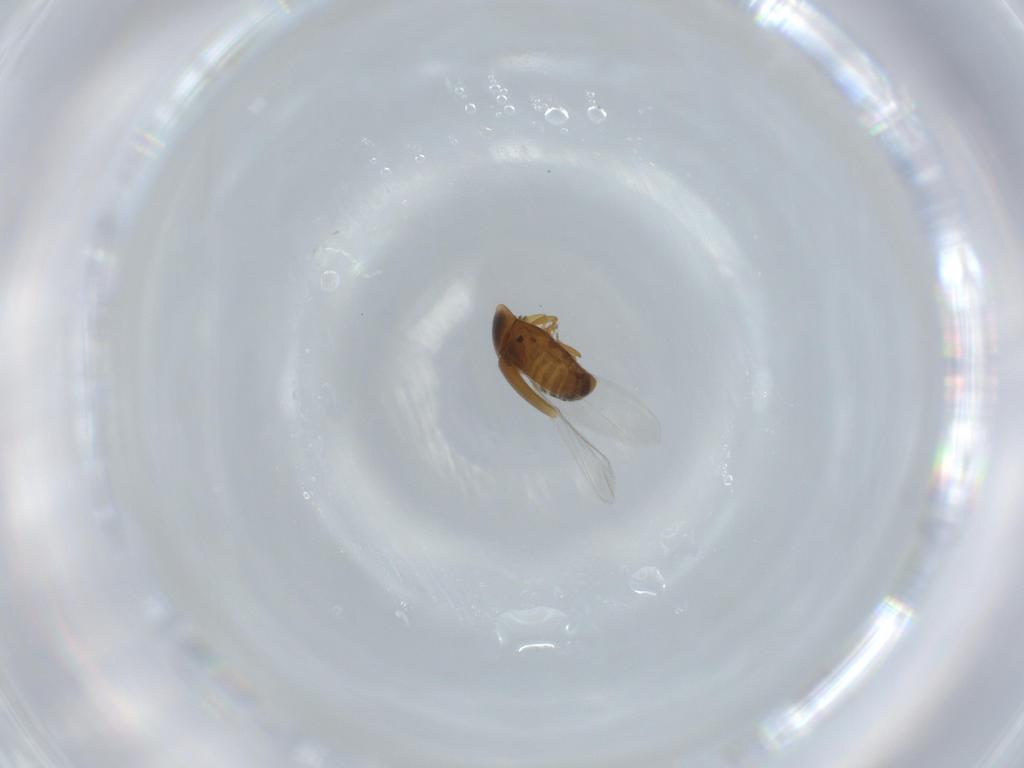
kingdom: Animalia
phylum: Arthropoda
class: Insecta
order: Coleoptera
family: Corylophidae
